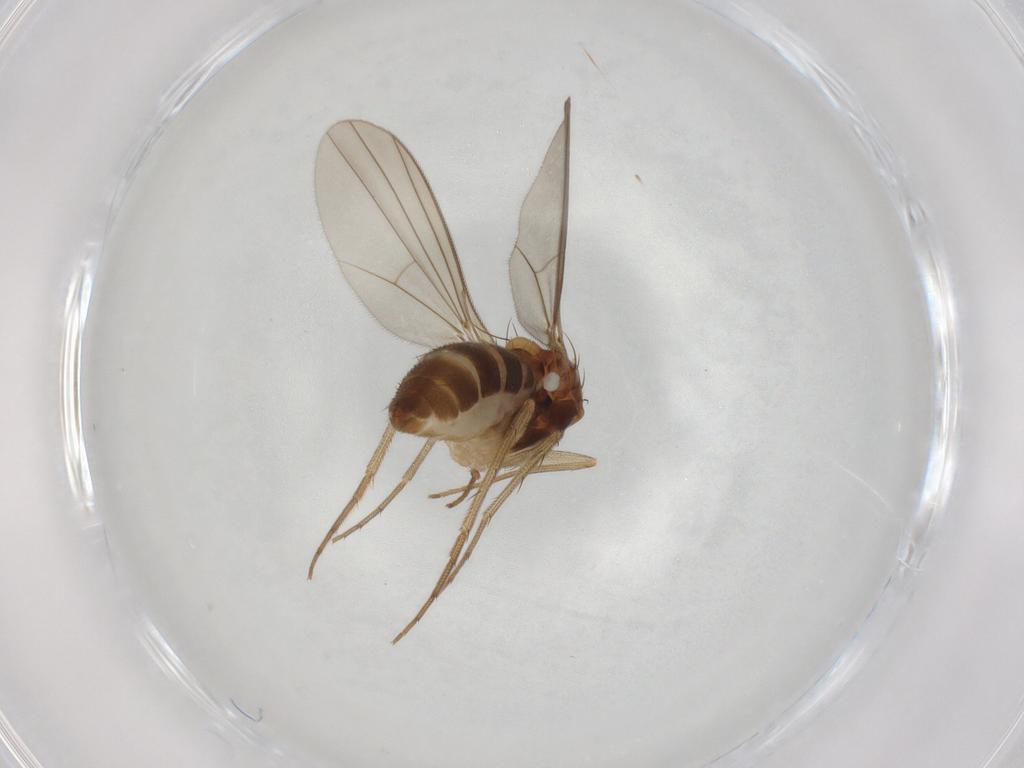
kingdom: Animalia
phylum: Arthropoda
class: Insecta
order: Diptera
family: Dolichopodidae
